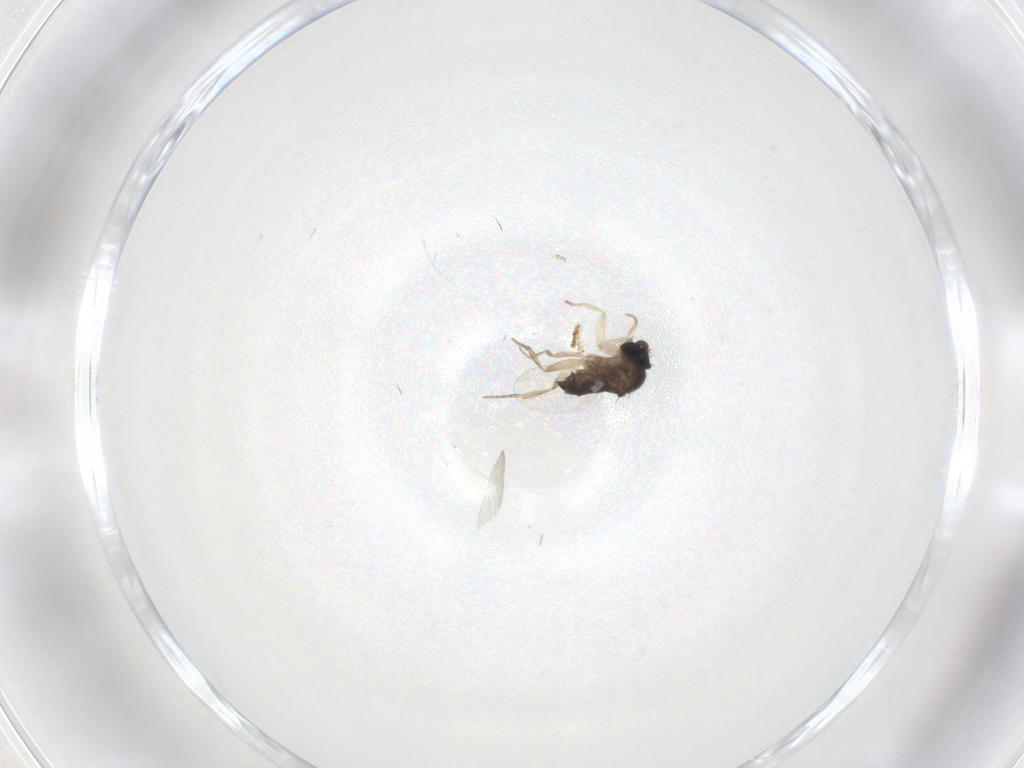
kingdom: Animalia
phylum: Arthropoda
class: Insecta
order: Diptera
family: Phoridae
